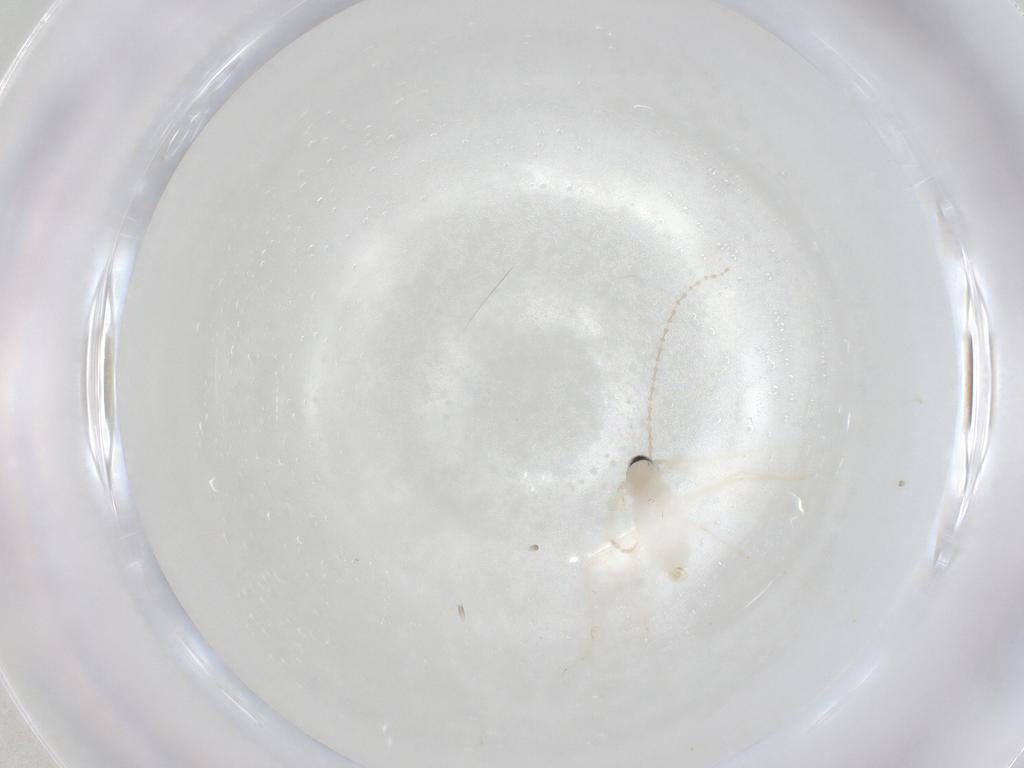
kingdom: Animalia
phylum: Arthropoda
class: Insecta
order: Diptera
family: Cecidomyiidae
